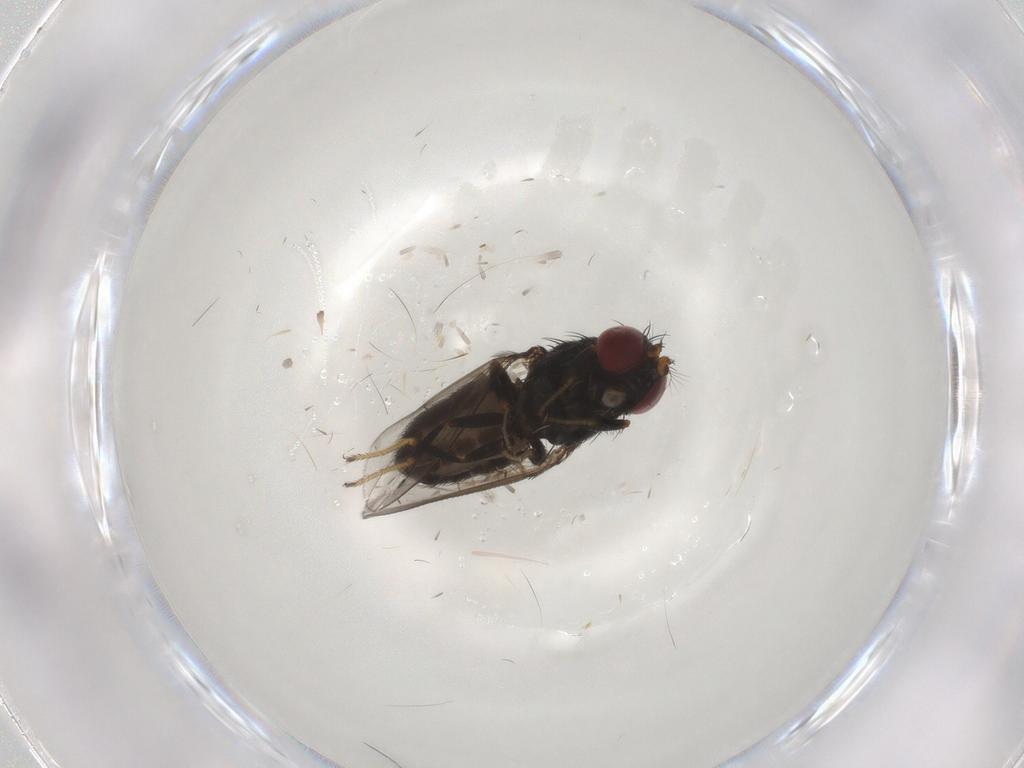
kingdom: Animalia
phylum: Arthropoda
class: Insecta
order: Diptera
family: Ephydridae
